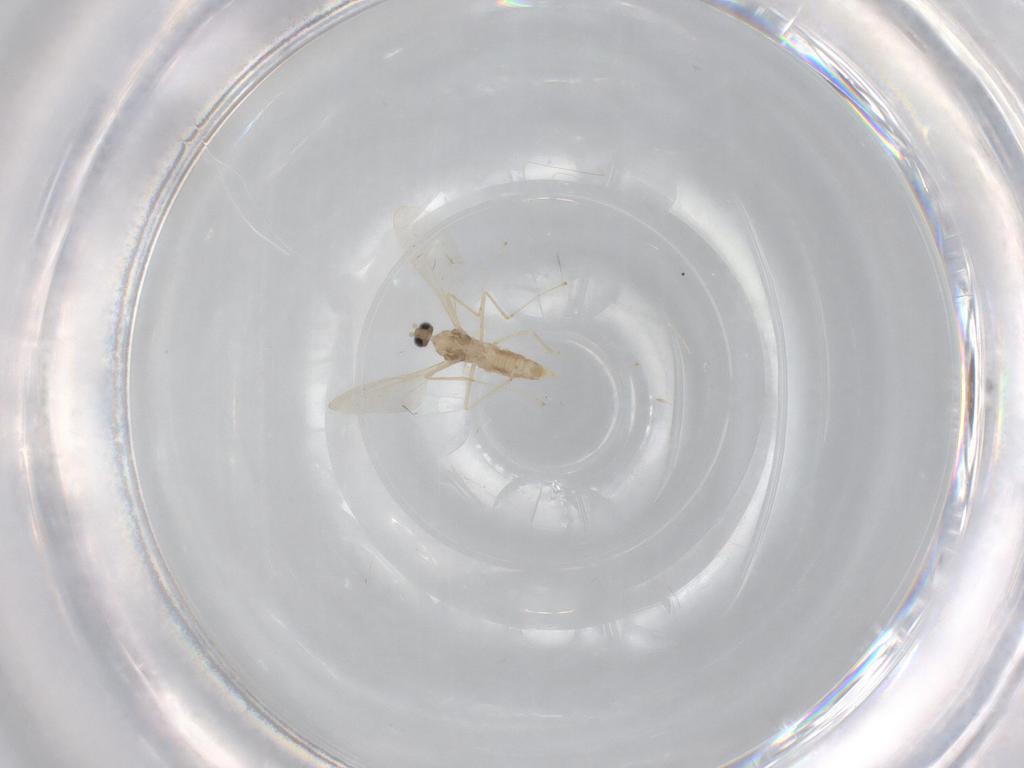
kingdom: Animalia
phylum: Arthropoda
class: Insecta
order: Diptera
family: Cecidomyiidae
